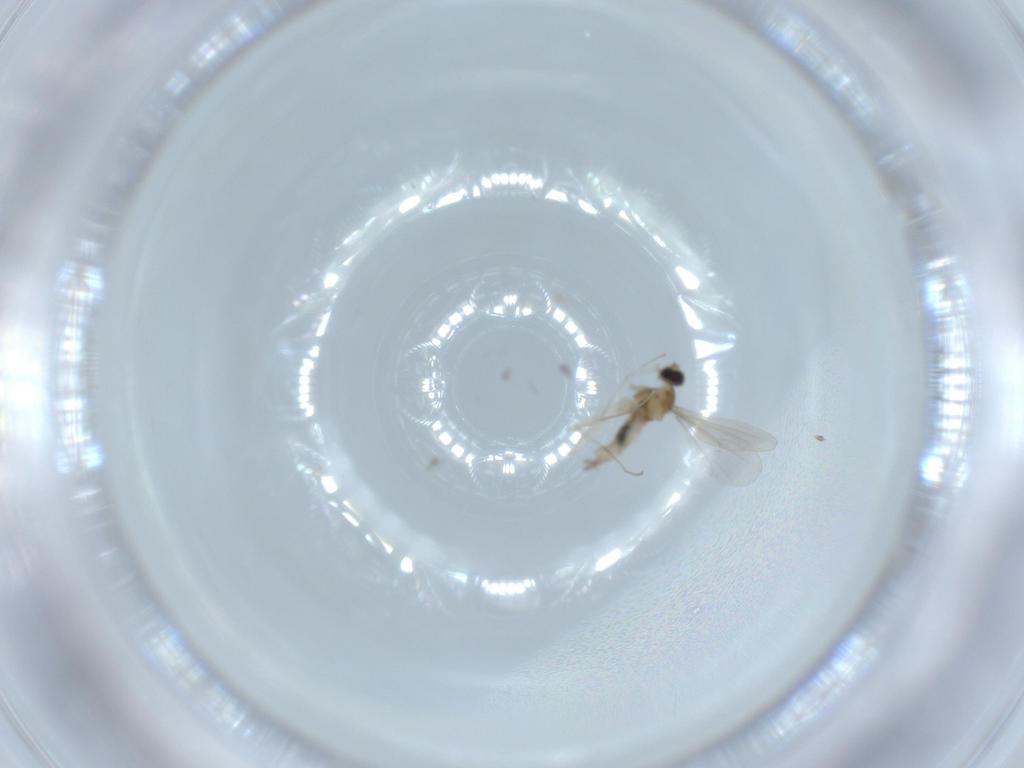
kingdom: Animalia
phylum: Arthropoda
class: Insecta
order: Diptera
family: Cecidomyiidae
